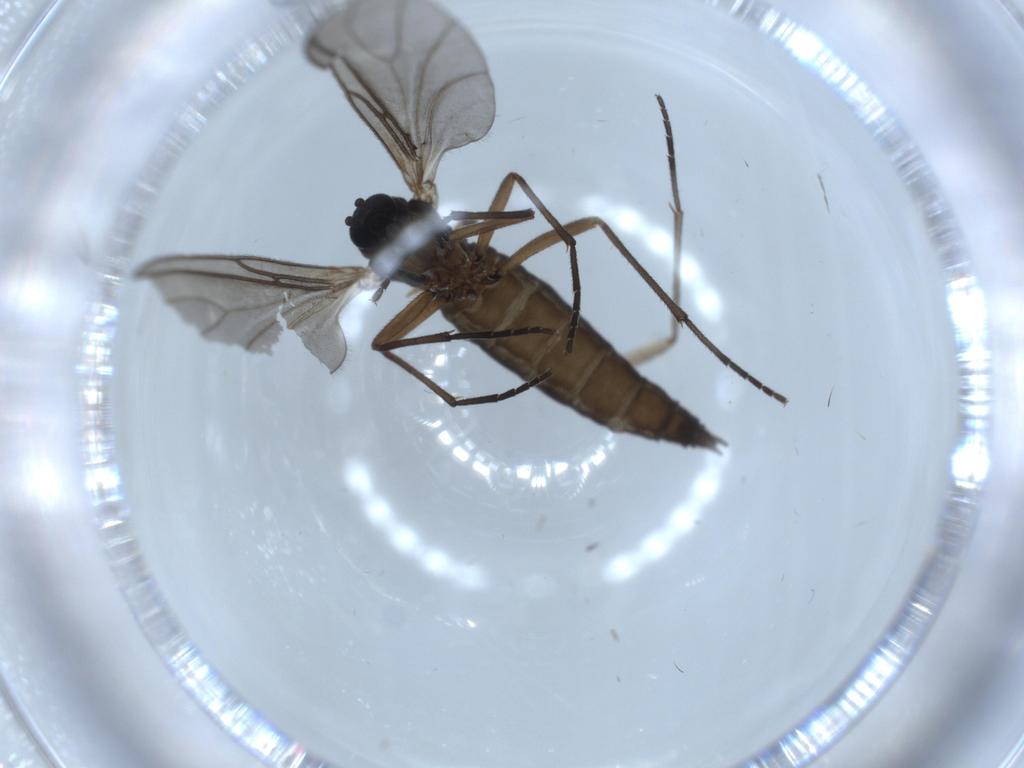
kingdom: Animalia
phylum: Arthropoda
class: Insecta
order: Diptera
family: Sciaridae
